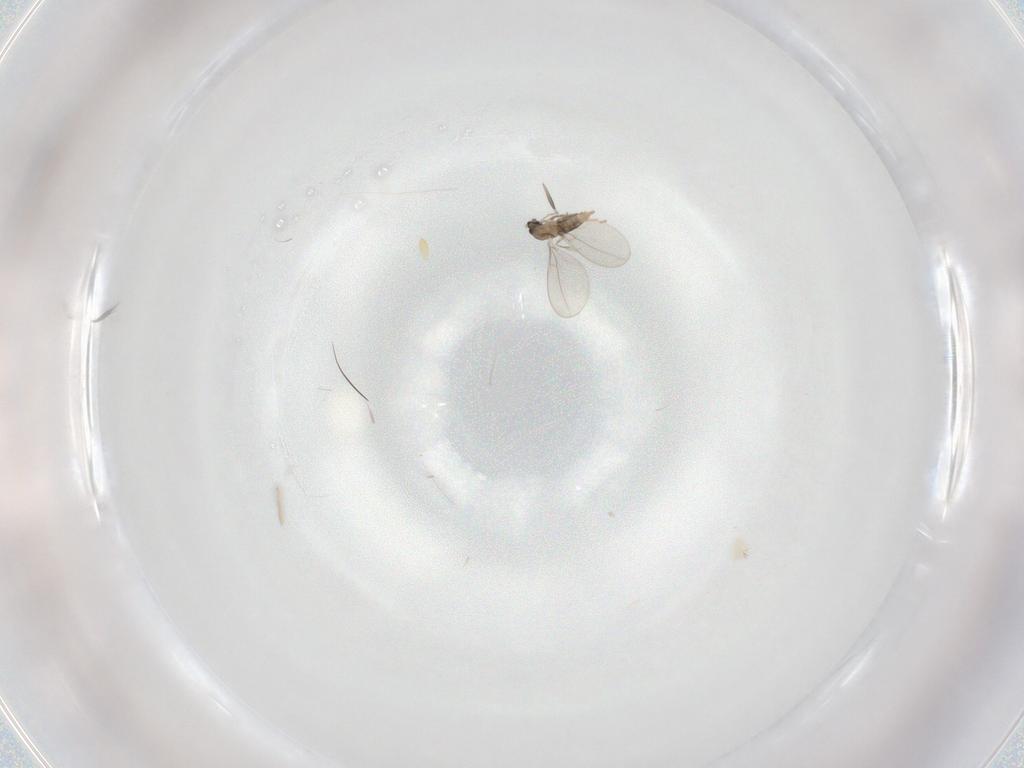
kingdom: Animalia
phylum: Arthropoda
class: Insecta
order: Diptera
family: Cecidomyiidae
